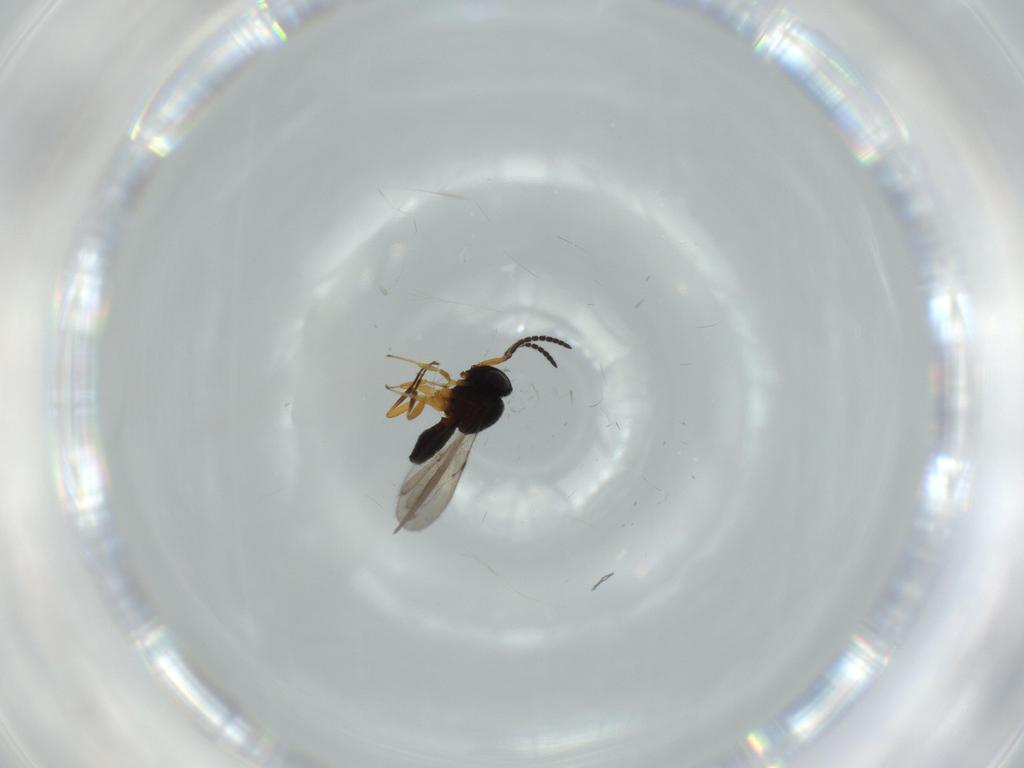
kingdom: Animalia
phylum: Arthropoda
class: Insecta
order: Hymenoptera
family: Scelionidae
